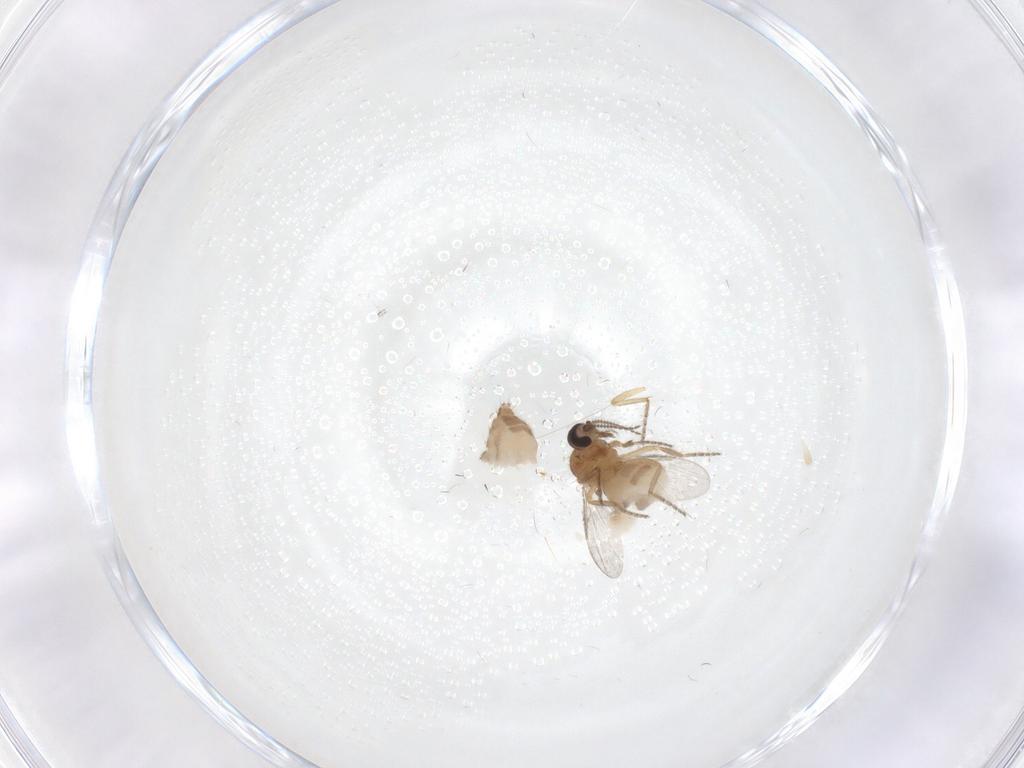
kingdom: Animalia
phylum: Arthropoda
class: Insecta
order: Diptera
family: Ceratopogonidae
